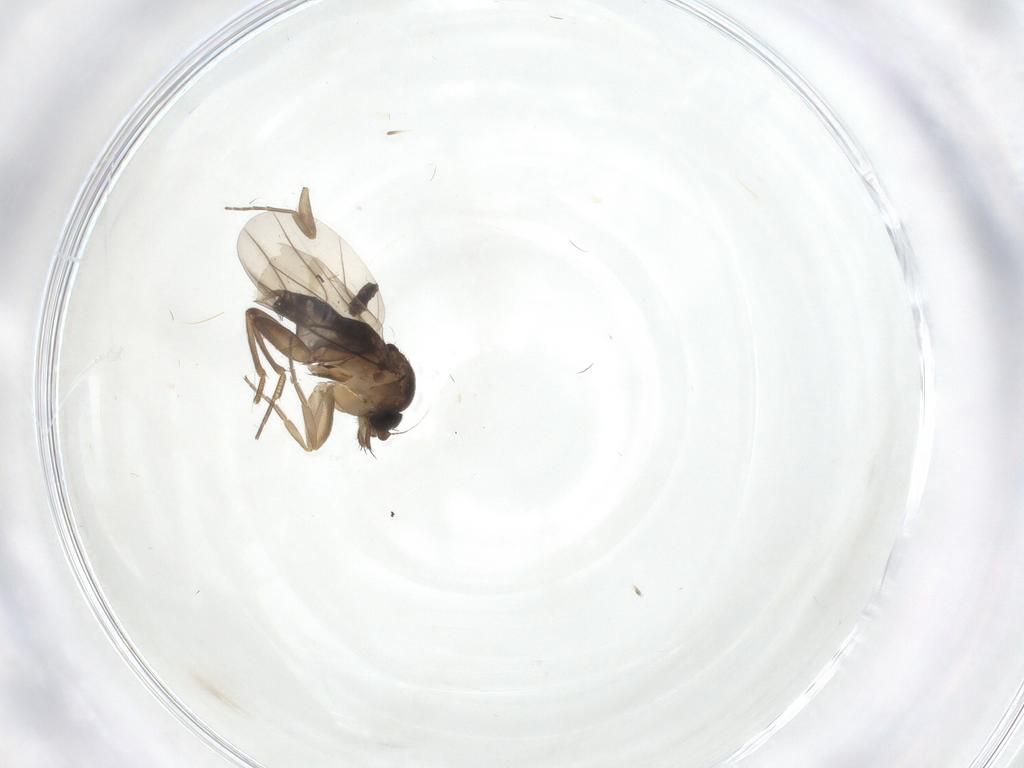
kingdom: Animalia
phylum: Arthropoda
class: Insecta
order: Diptera
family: Phoridae
